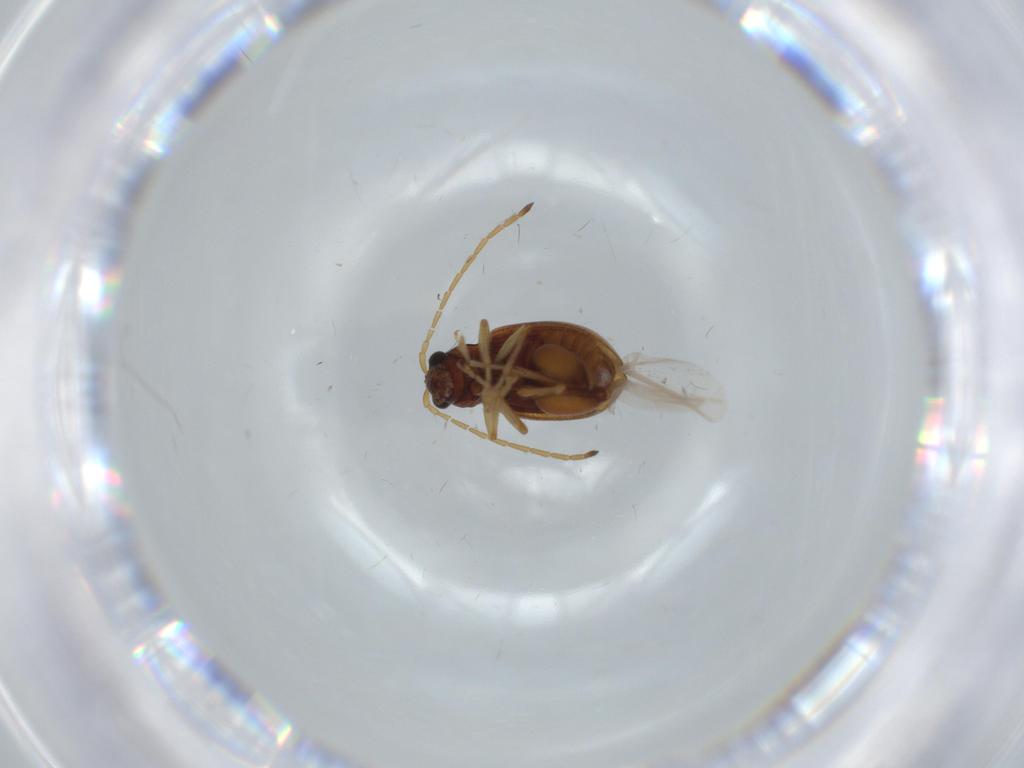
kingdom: Animalia
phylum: Arthropoda
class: Insecta
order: Coleoptera
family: Chrysomelidae
